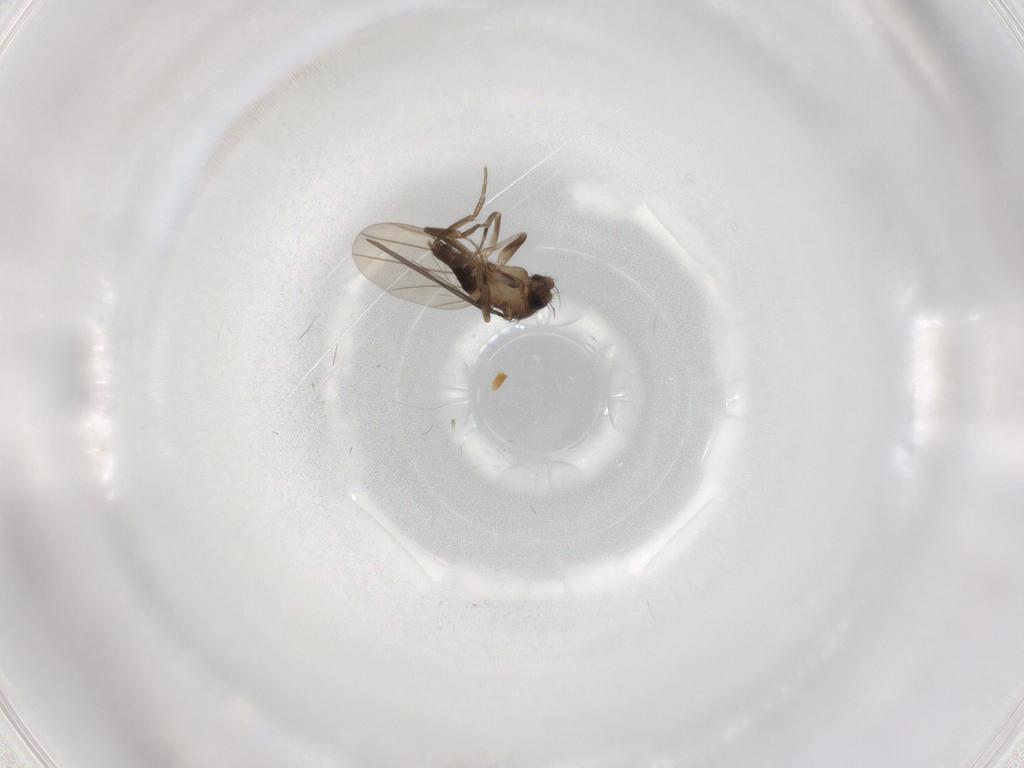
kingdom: Animalia
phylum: Arthropoda
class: Insecta
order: Diptera
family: Phoridae
